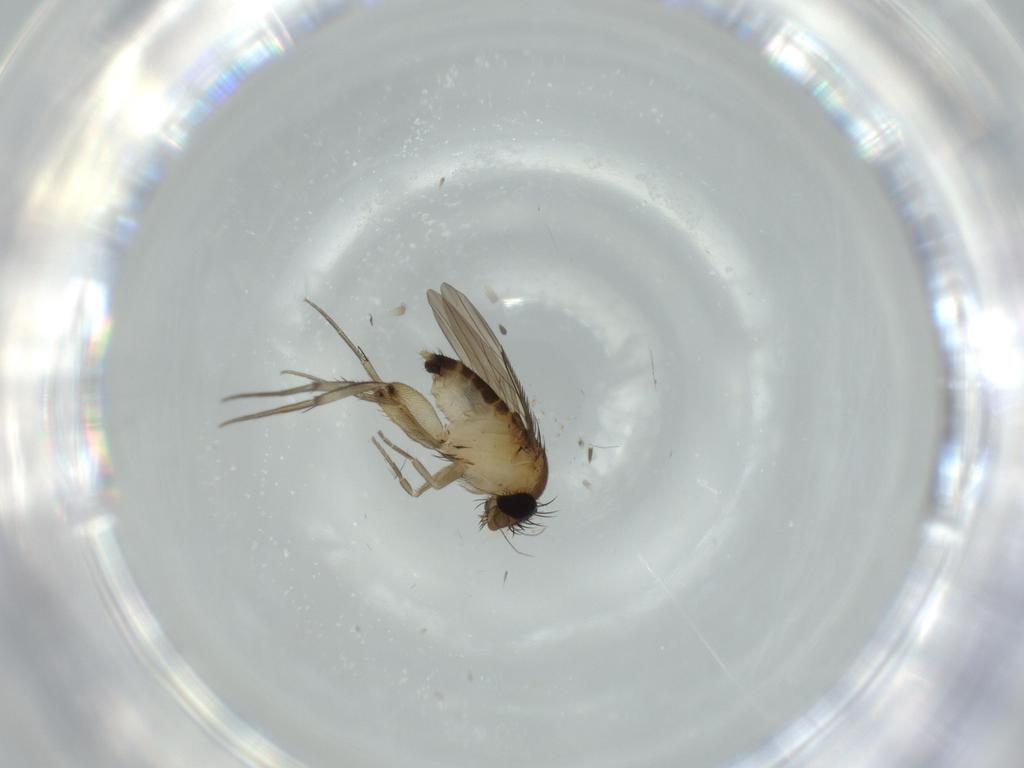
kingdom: Animalia
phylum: Arthropoda
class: Insecta
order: Diptera
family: Phoridae
